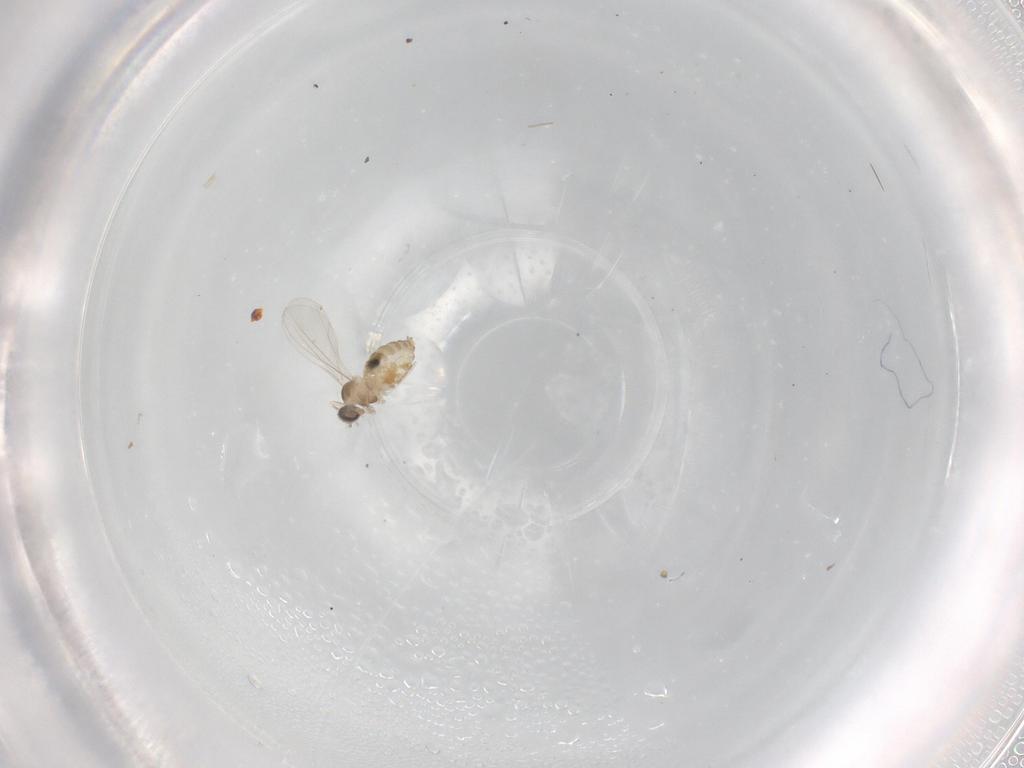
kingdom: Animalia
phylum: Arthropoda
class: Insecta
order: Diptera
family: Cecidomyiidae
